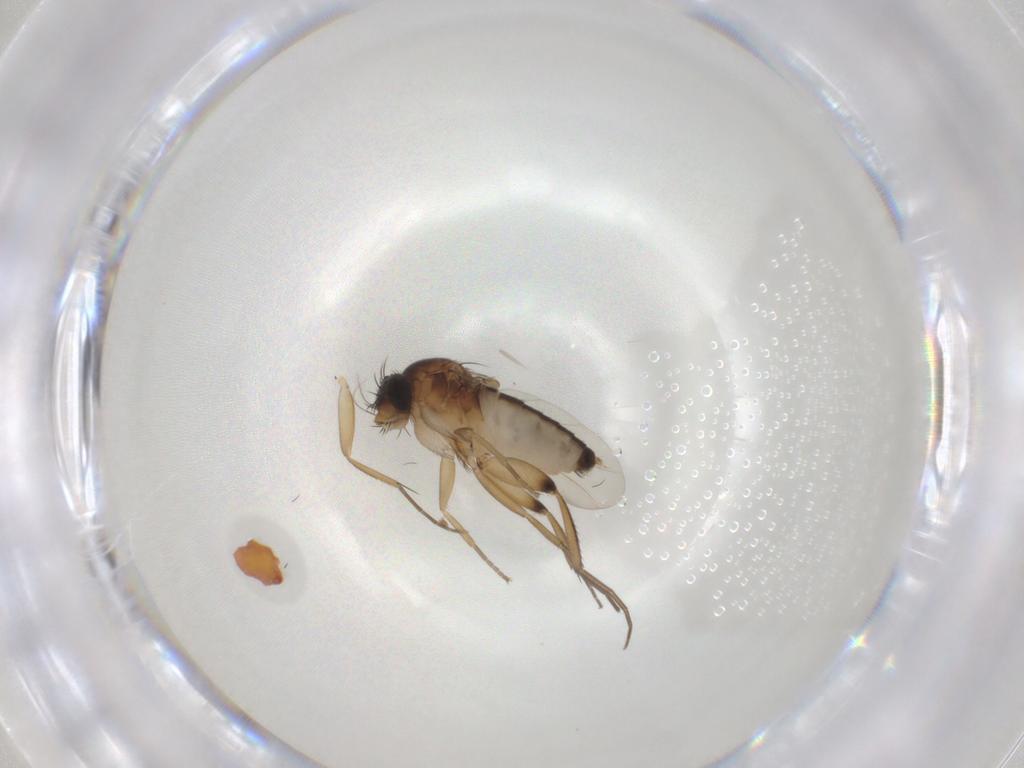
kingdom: Animalia
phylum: Arthropoda
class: Insecta
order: Diptera
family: Phoridae
